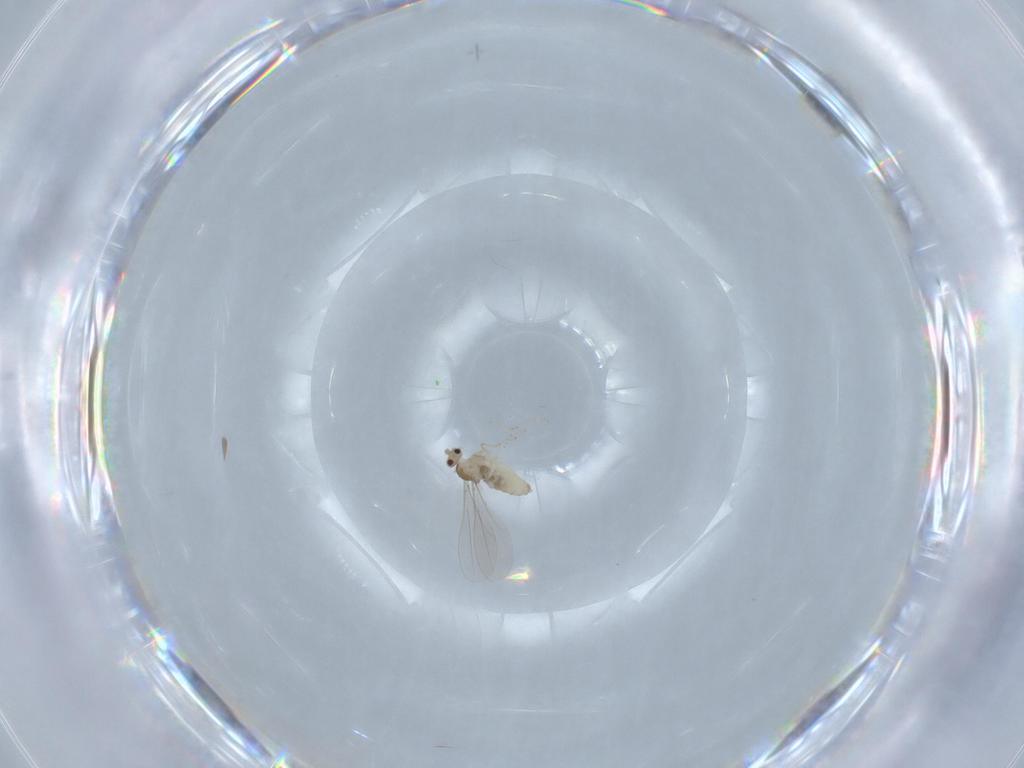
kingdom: Animalia
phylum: Arthropoda
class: Insecta
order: Diptera
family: Cecidomyiidae
